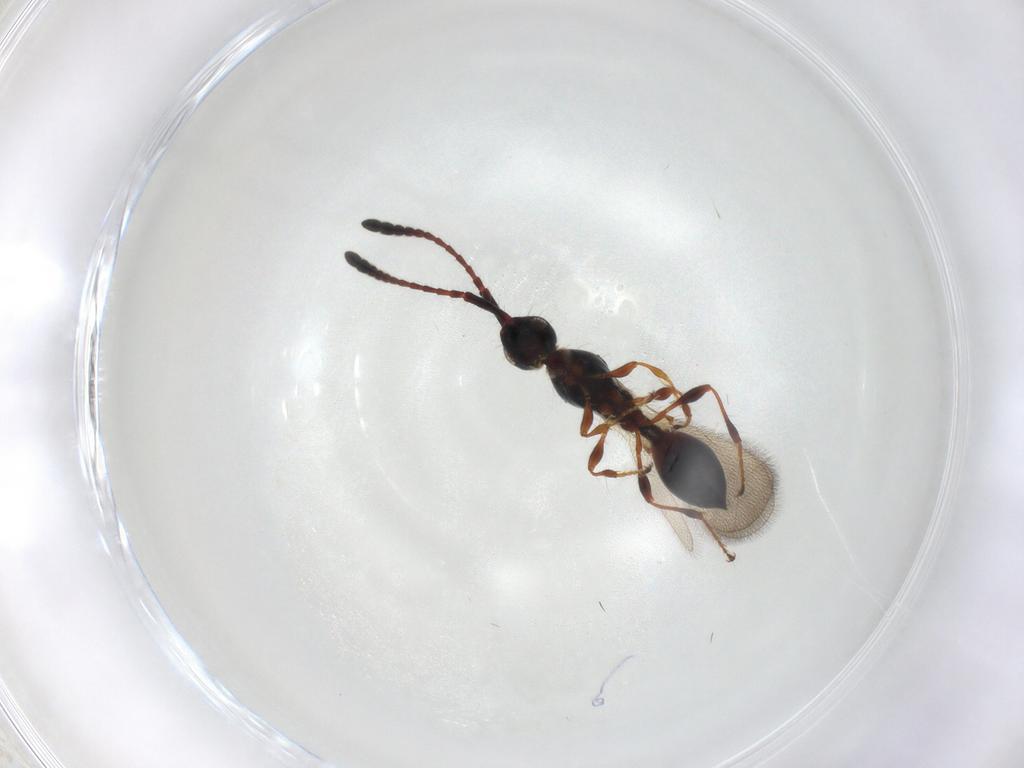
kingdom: Animalia
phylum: Arthropoda
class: Insecta
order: Hymenoptera
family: Diapriidae
